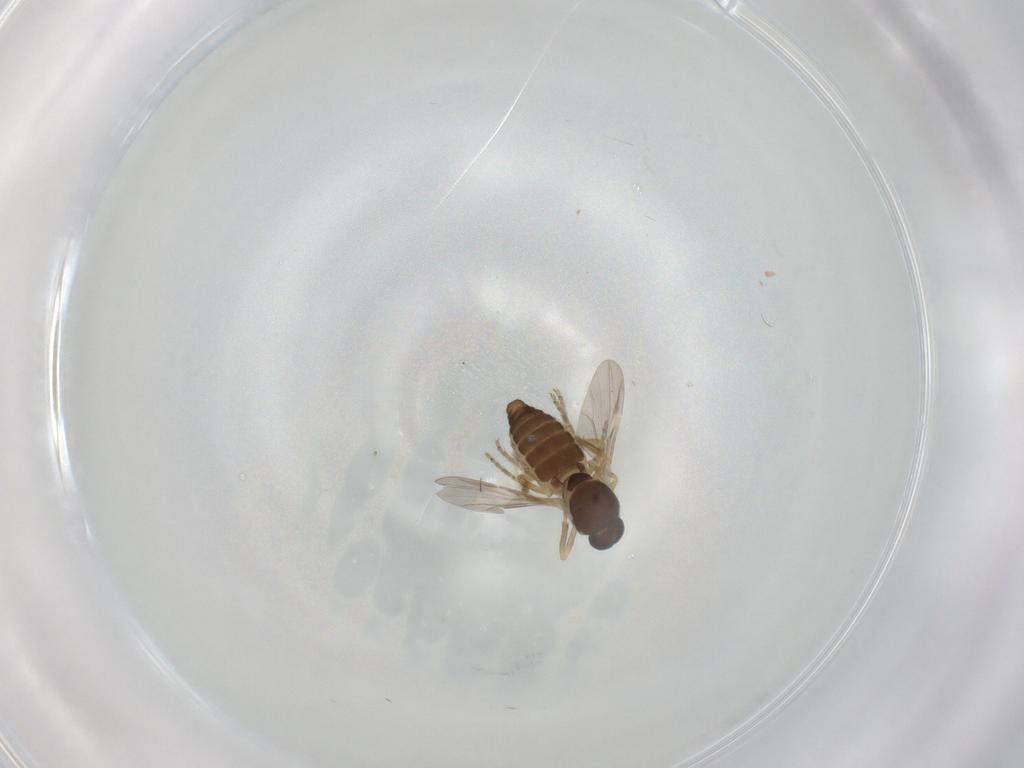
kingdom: Animalia
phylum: Arthropoda
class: Insecta
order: Diptera
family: Ceratopogonidae
